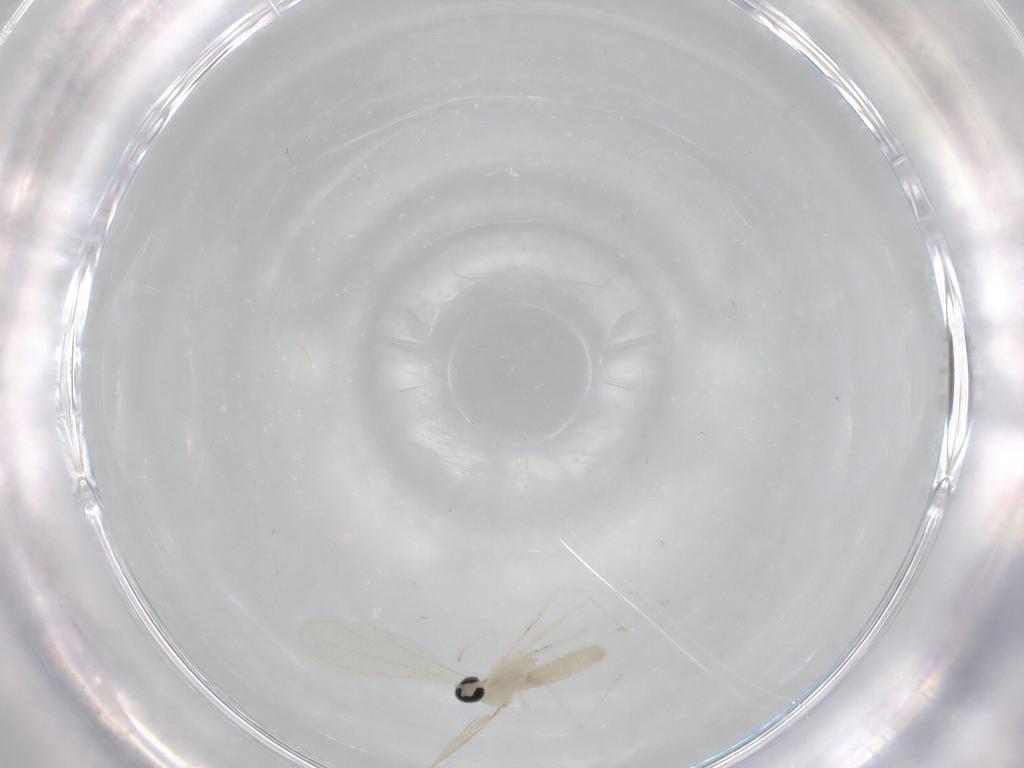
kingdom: Animalia
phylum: Arthropoda
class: Insecta
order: Diptera
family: Cecidomyiidae
